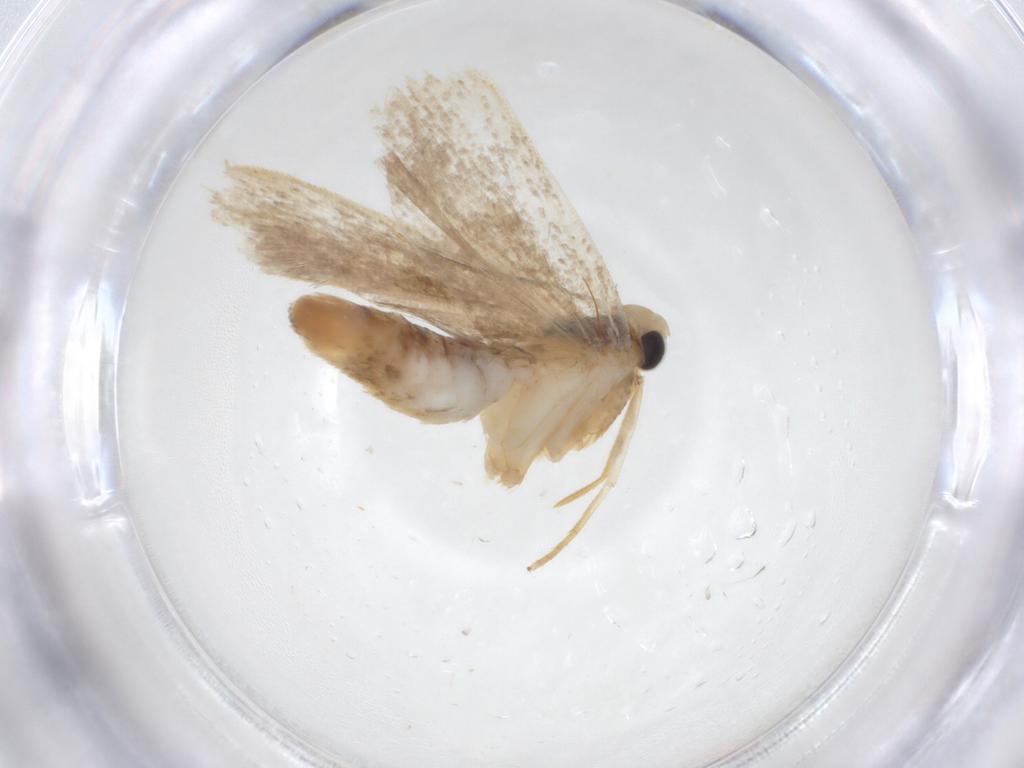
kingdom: Animalia
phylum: Arthropoda
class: Insecta
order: Lepidoptera
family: Gelechiidae
